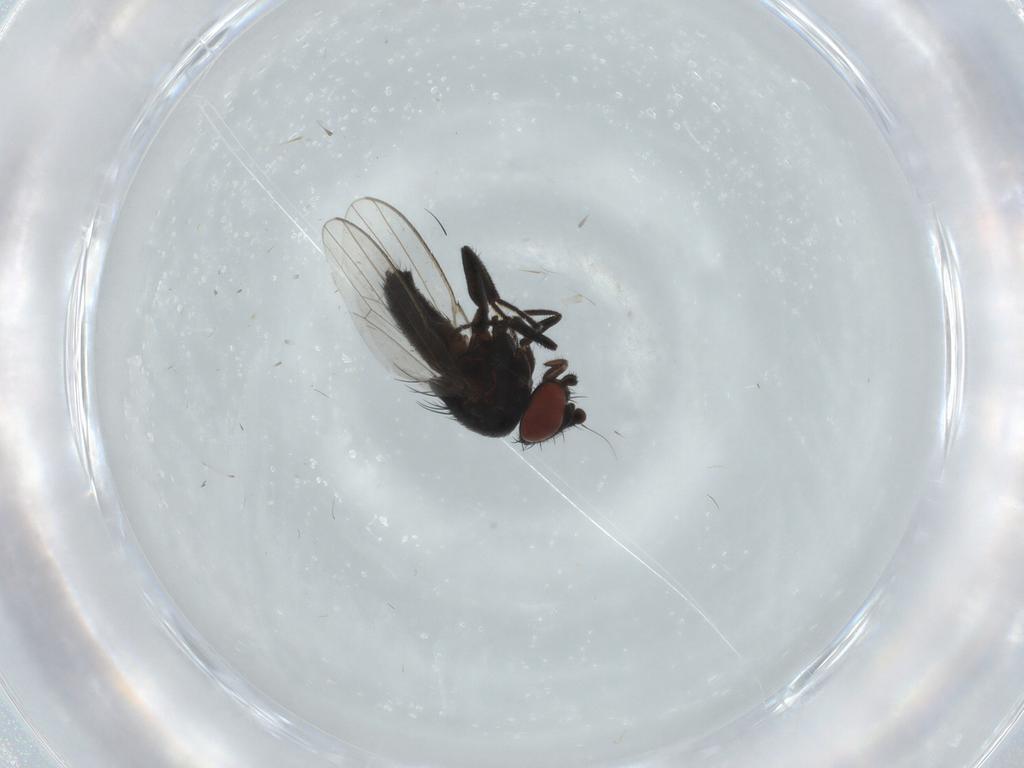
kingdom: Animalia
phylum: Arthropoda
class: Insecta
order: Diptera
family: Milichiidae
